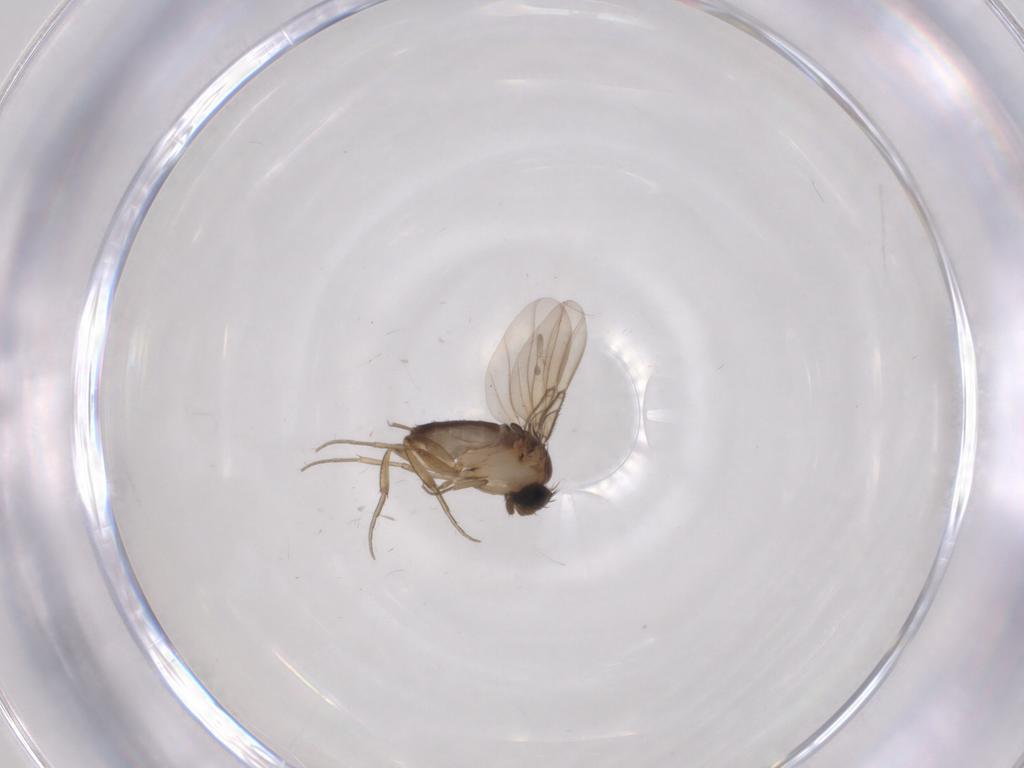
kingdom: Animalia
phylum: Arthropoda
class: Insecta
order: Diptera
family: Phoridae
